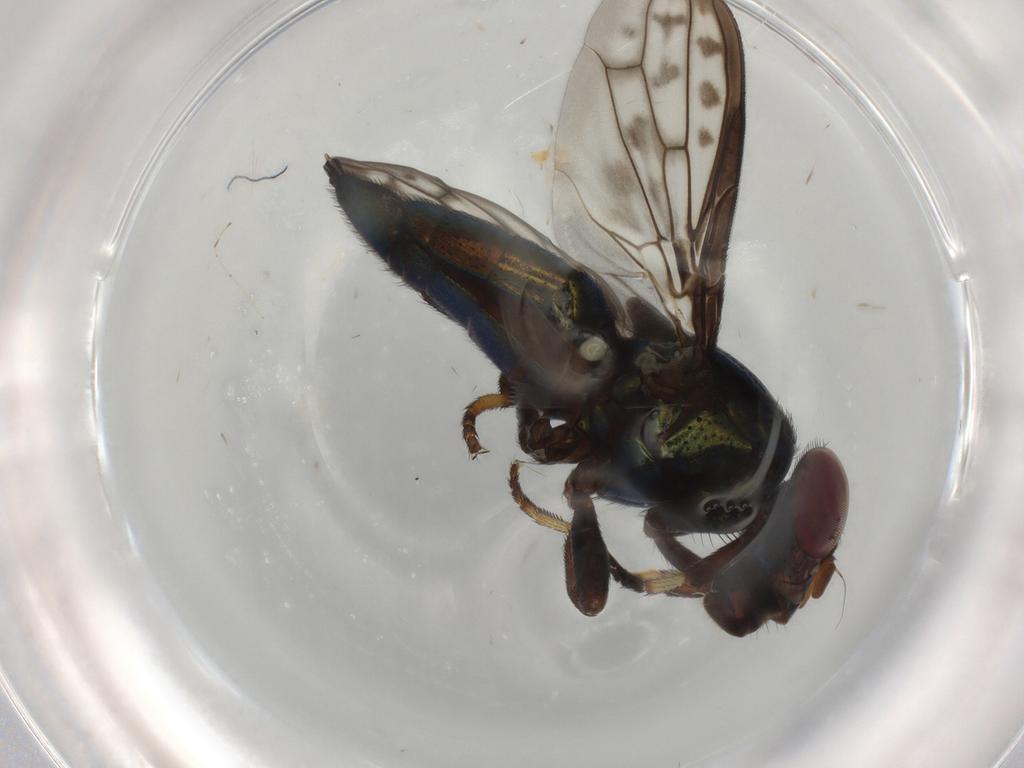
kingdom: Animalia
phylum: Arthropoda
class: Insecta
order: Diptera
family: Ulidiidae
